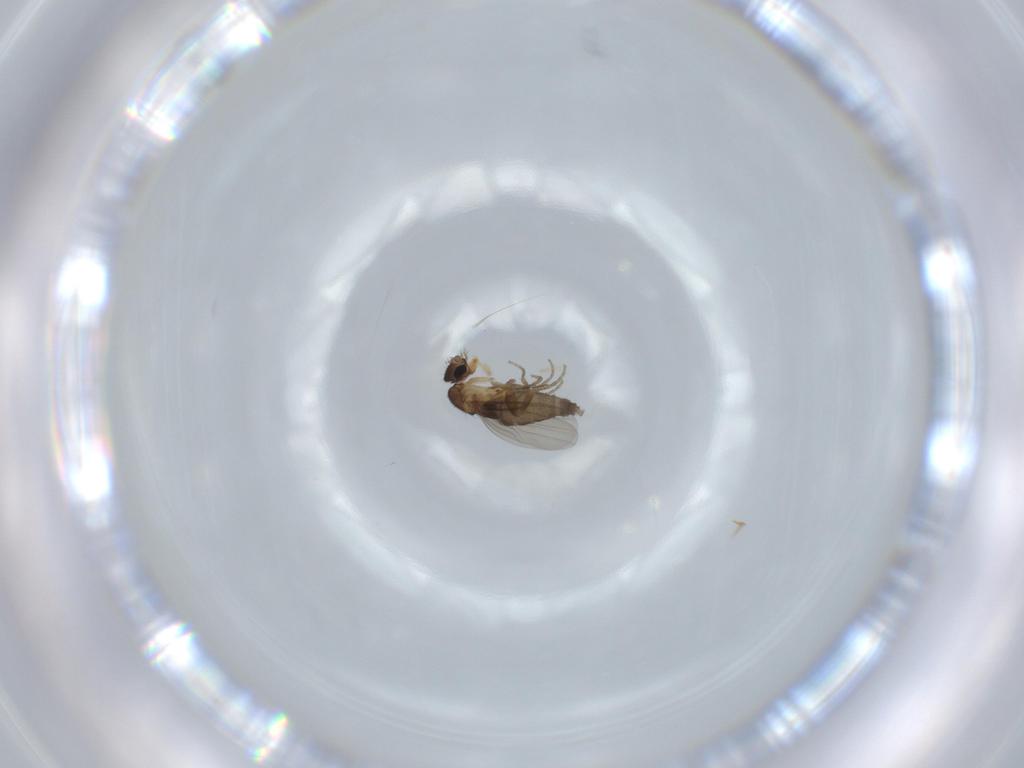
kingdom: Animalia
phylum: Arthropoda
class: Insecta
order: Diptera
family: Phoridae
